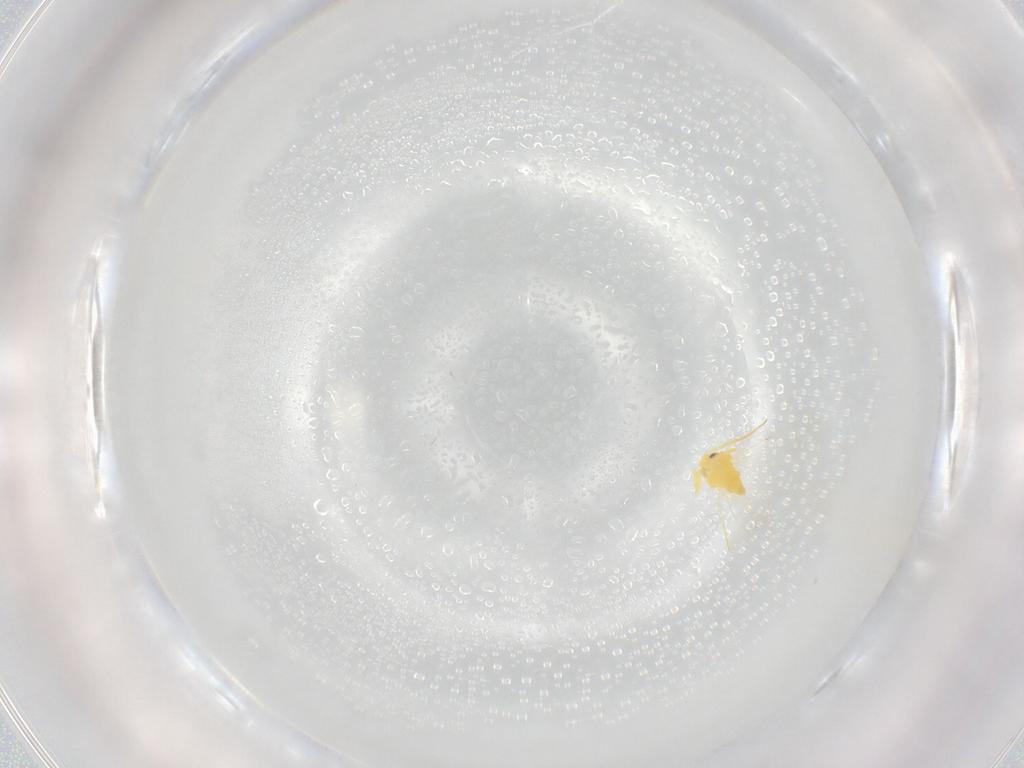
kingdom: Animalia
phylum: Arthropoda
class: Insecta
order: Hemiptera
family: Aleyrodidae
